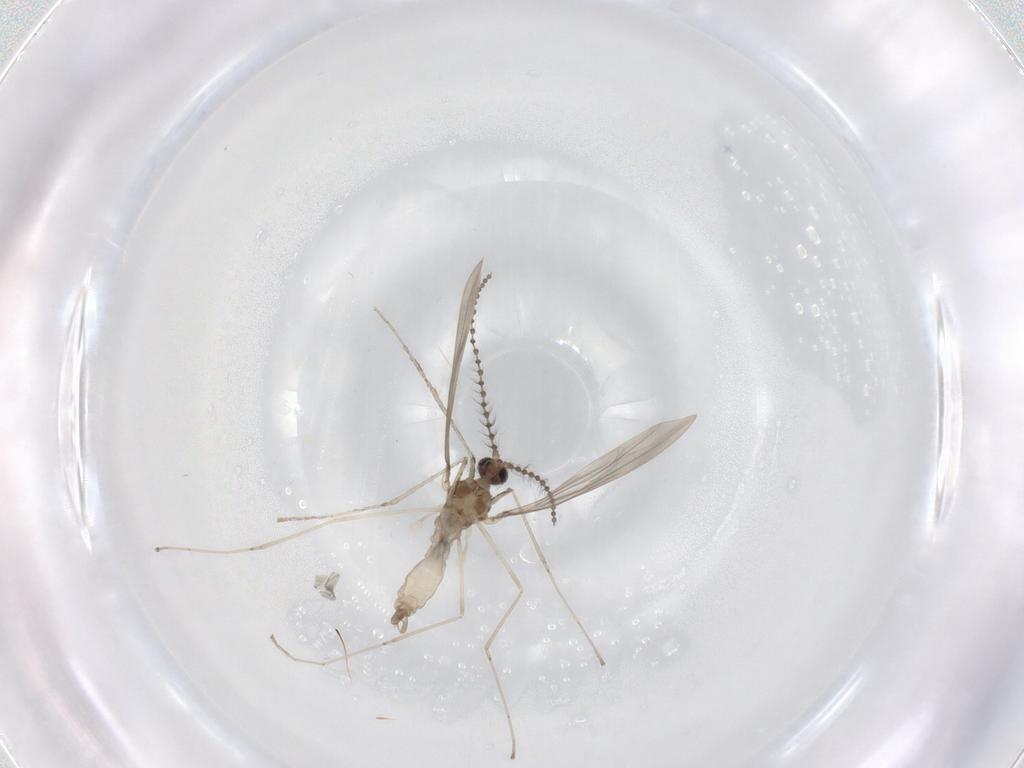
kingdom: Animalia
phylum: Arthropoda
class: Insecta
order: Diptera
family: Cecidomyiidae
